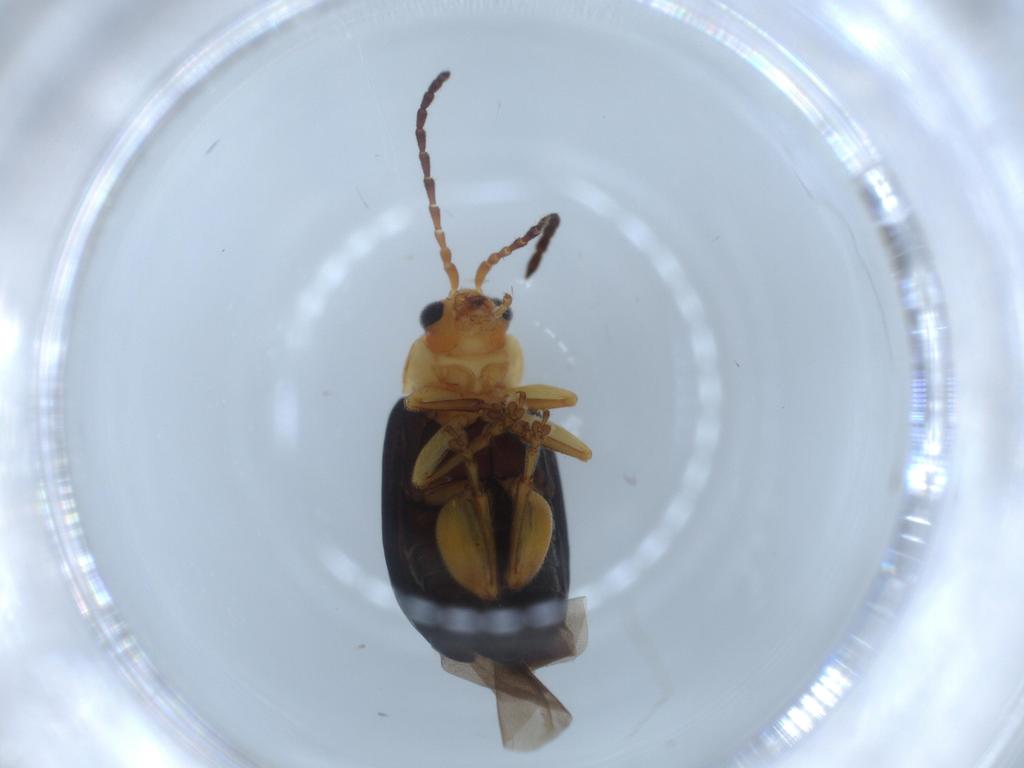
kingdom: Animalia
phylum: Arthropoda
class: Insecta
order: Coleoptera
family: Chrysomelidae
